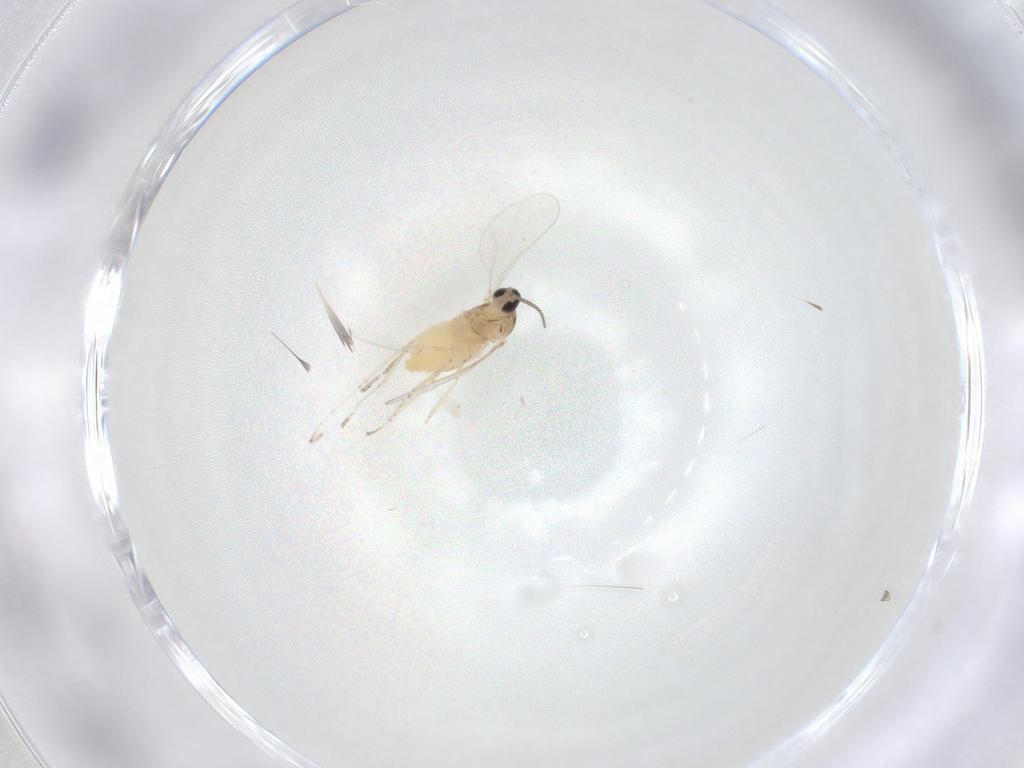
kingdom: Animalia
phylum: Arthropoda
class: Insecta
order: Diptera
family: Cecidomyiidae
